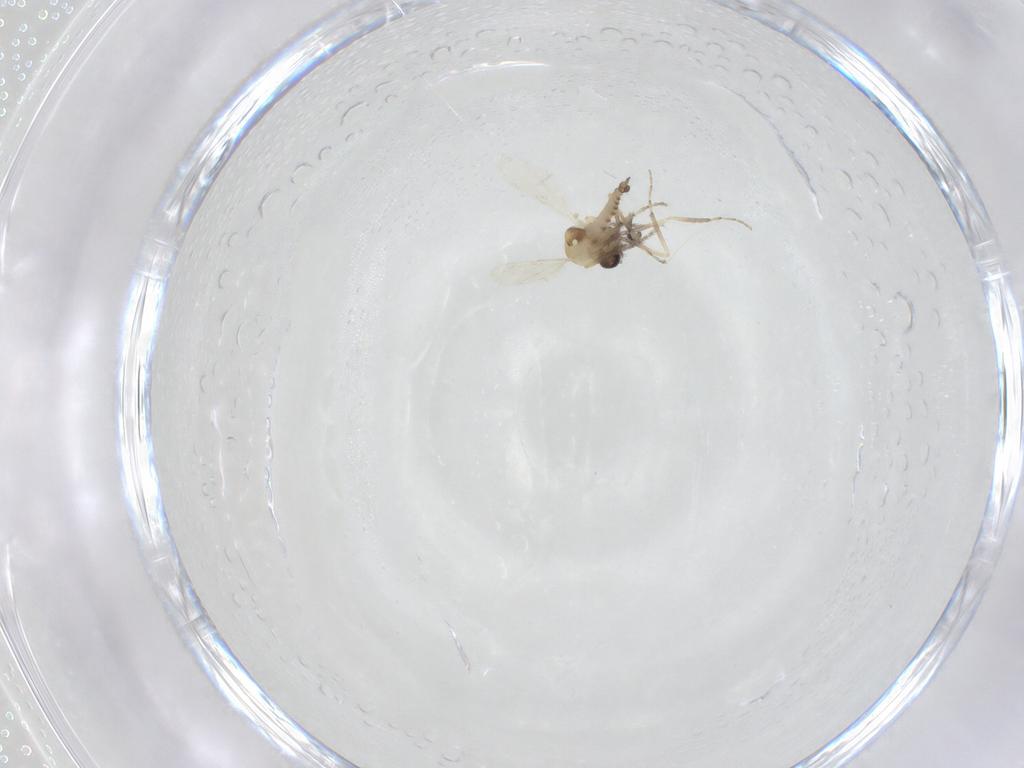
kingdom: Animalia
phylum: Arthropoda
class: Insecta
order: Diptera
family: Ceratopogonidae
